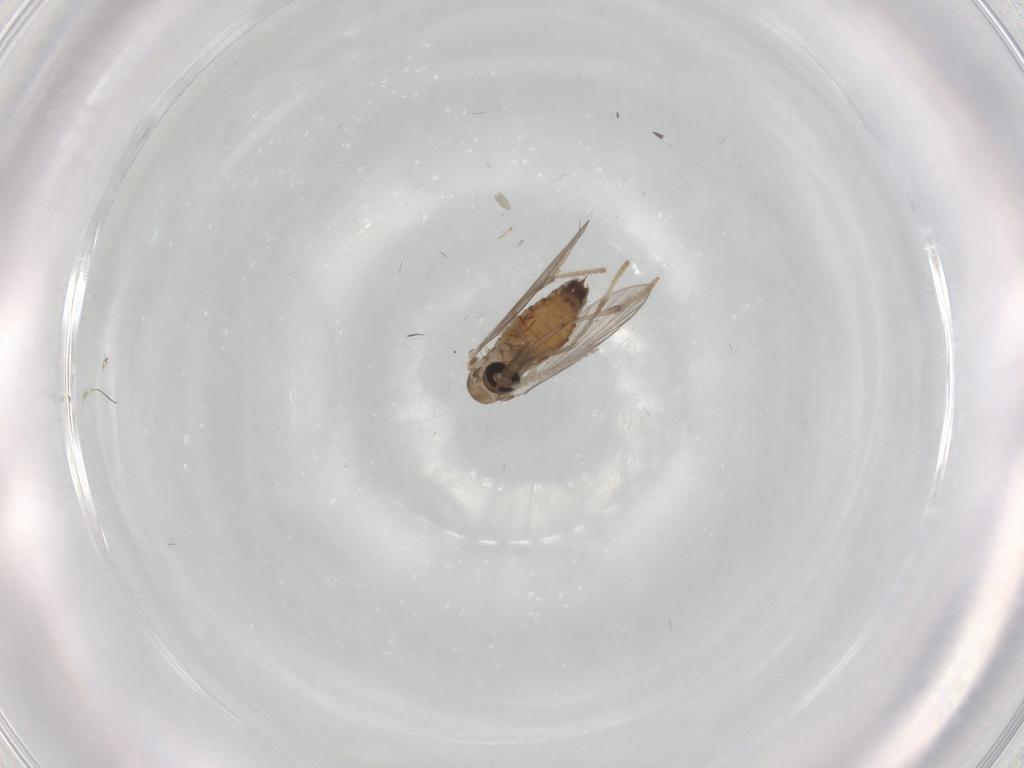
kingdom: Animalia
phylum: Arthropoda
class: Insecta
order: Diptera
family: Psychodidae
